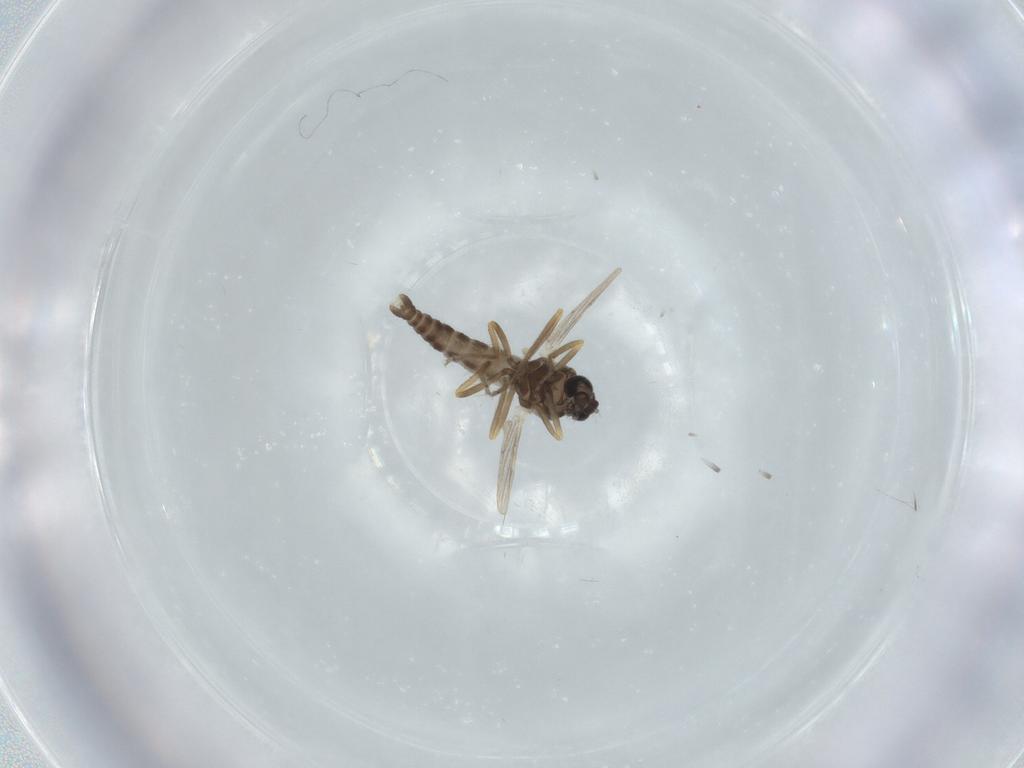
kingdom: Animalia
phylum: Arthropoda
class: Insecta
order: Diptera
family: Ceratopogonidae
